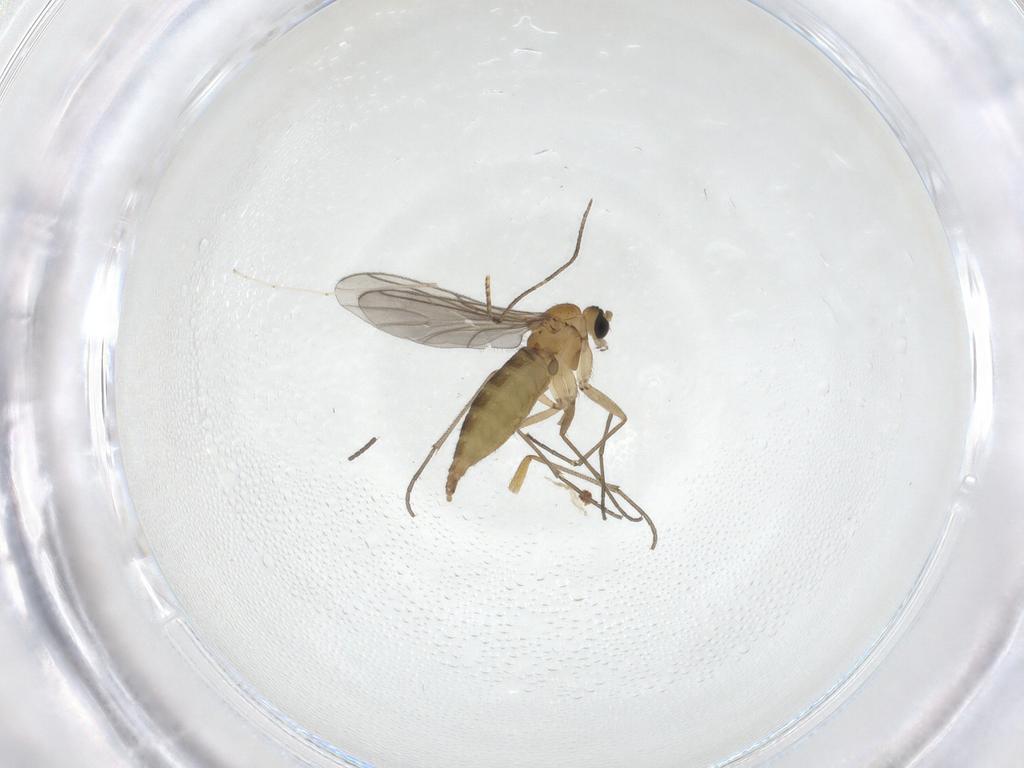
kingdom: Animalia
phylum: Arthropoda
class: Insecta
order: Diptera
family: Sciaridae
